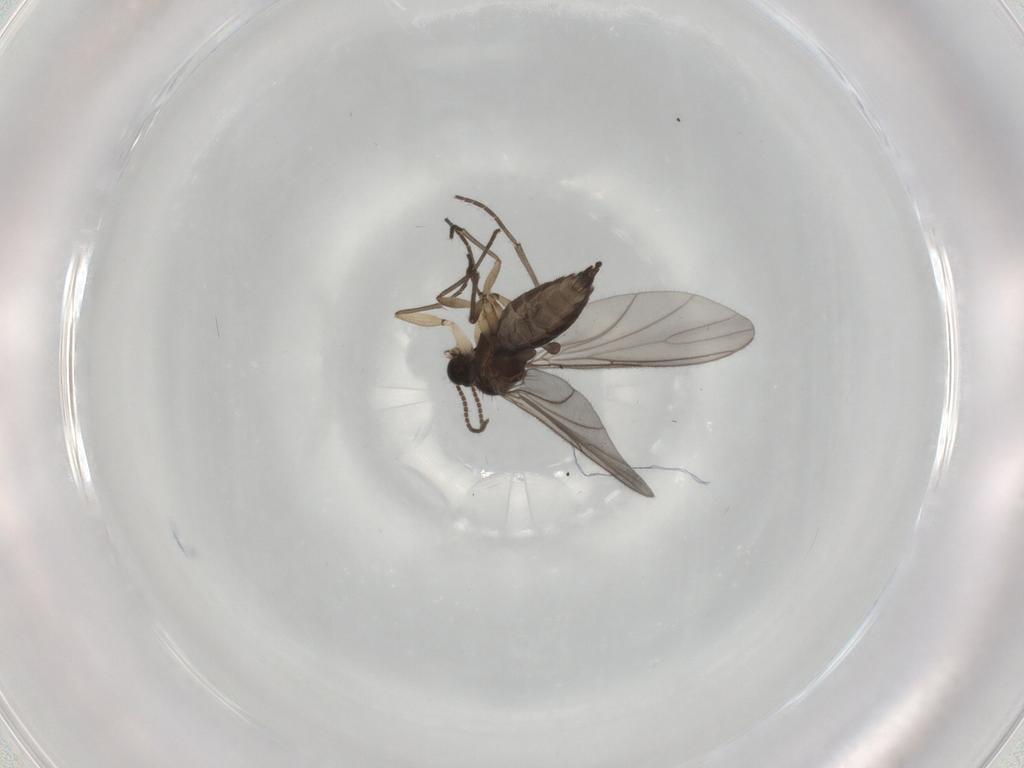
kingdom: Animalia
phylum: Arthropoda
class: Insecta
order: Diptera
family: Sciaridae
